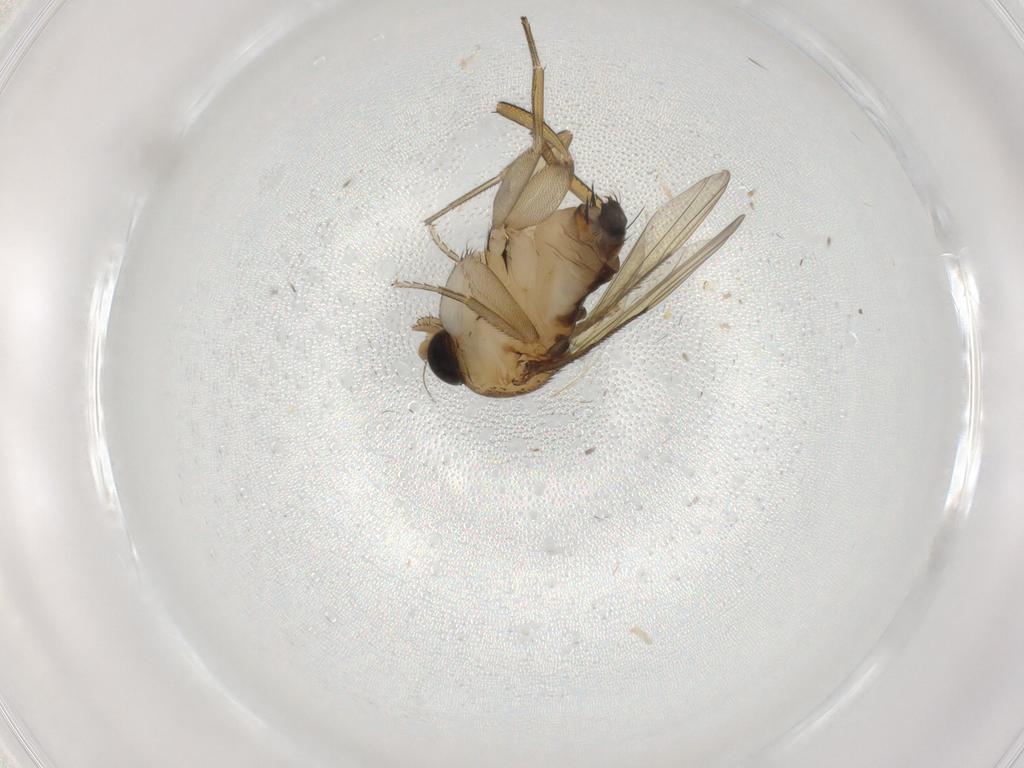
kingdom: Animalia
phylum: Arthropoda
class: Insecta
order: Diptera
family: Phoridae
